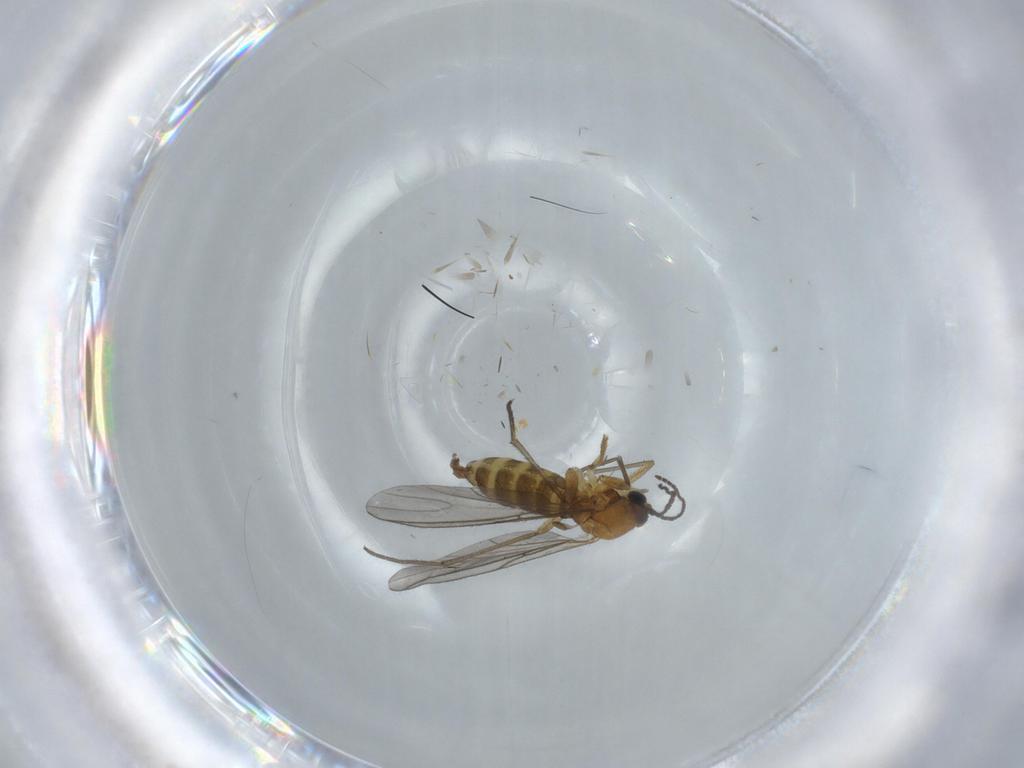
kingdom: Animalia
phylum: Arthropoda
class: Insecta
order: Diptera
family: Sciaridae
